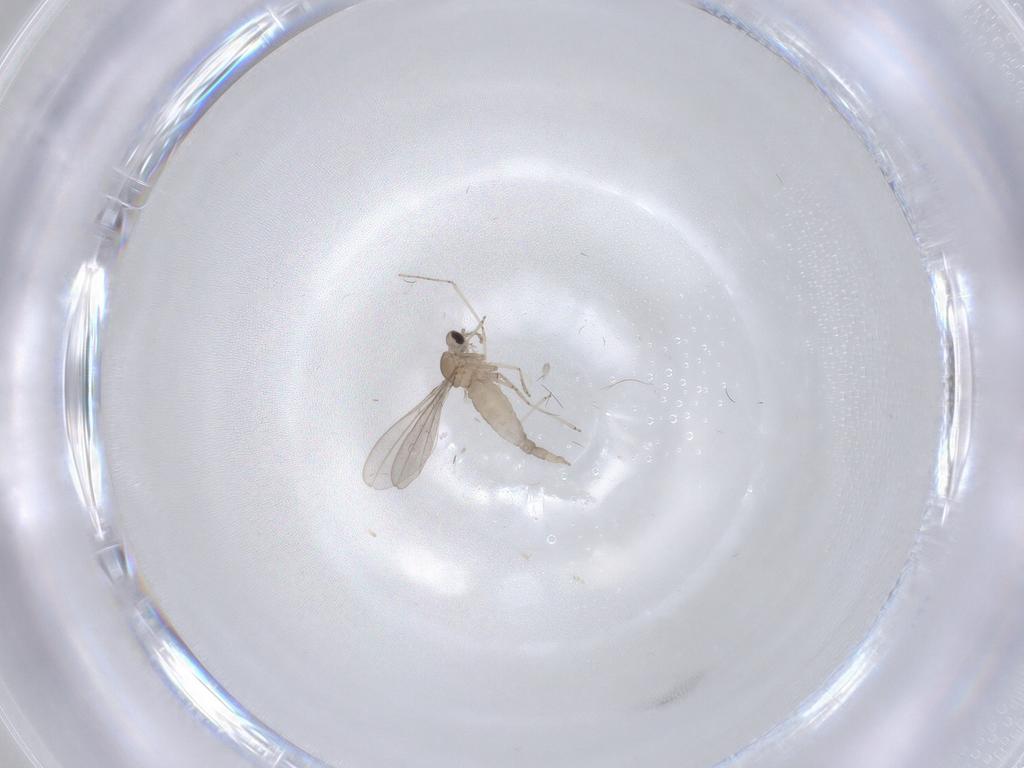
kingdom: Animalia
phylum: Arthropoda
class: Insecta
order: Diptera
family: Cecidomyiidae
